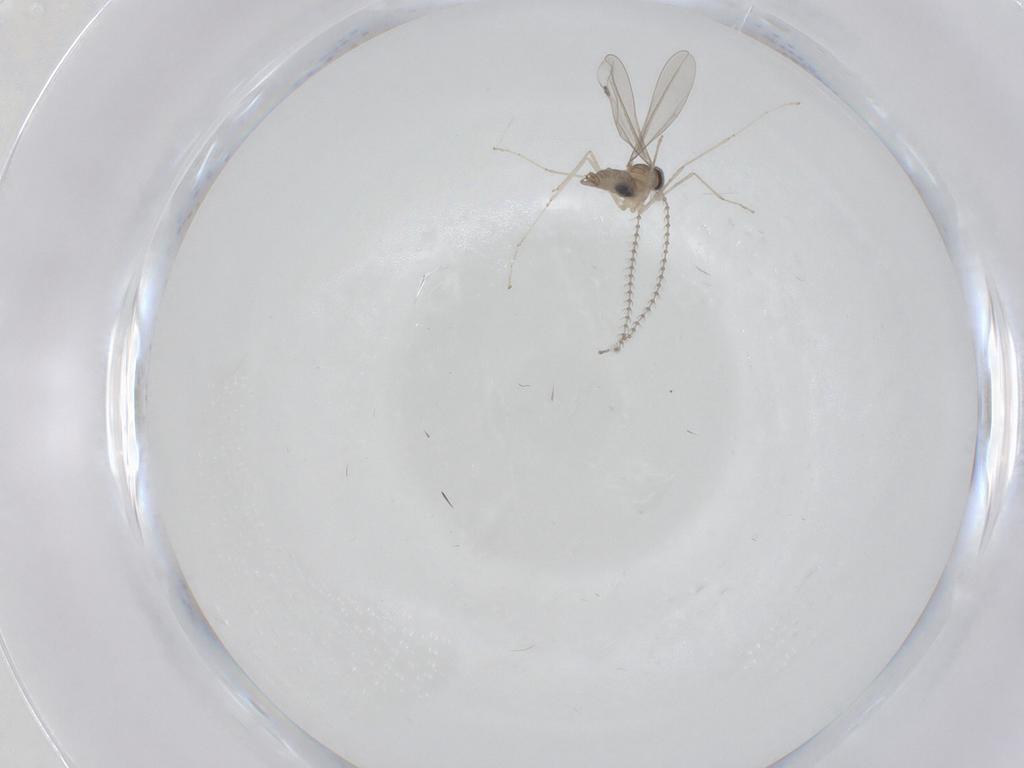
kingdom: Animalia
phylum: Arthropoda
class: Insecta
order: Diptera
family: Cecidomyiidae
